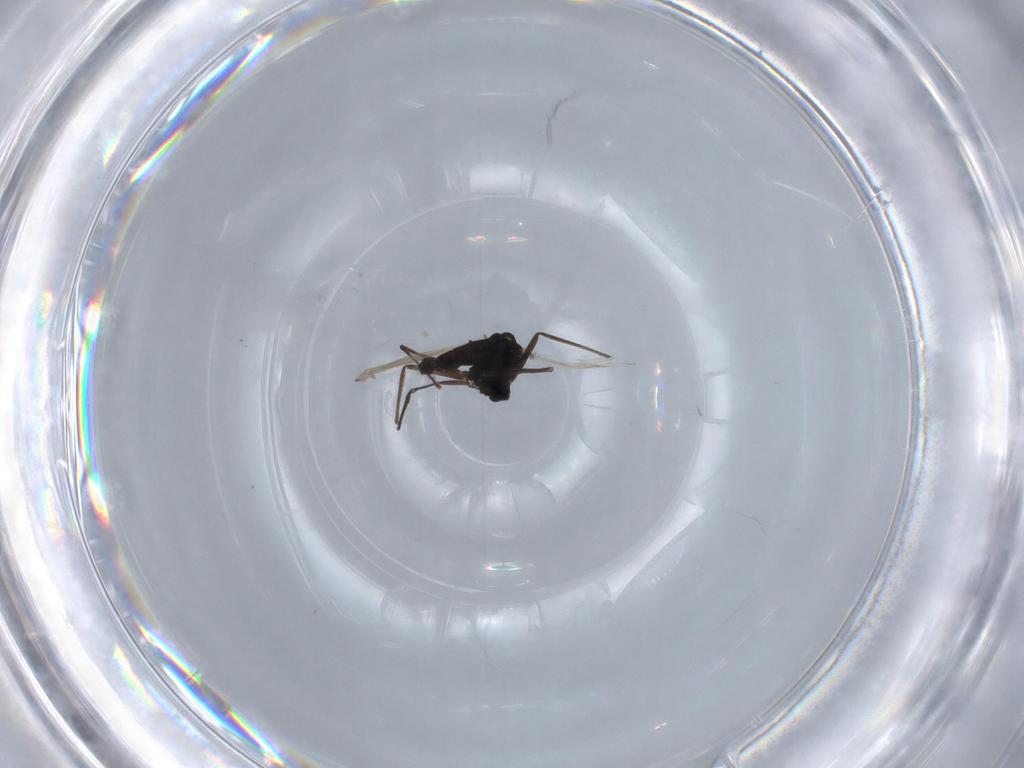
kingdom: Animalia
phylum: Arthropoda
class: Insecta
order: Diptera
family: Chironomidae
